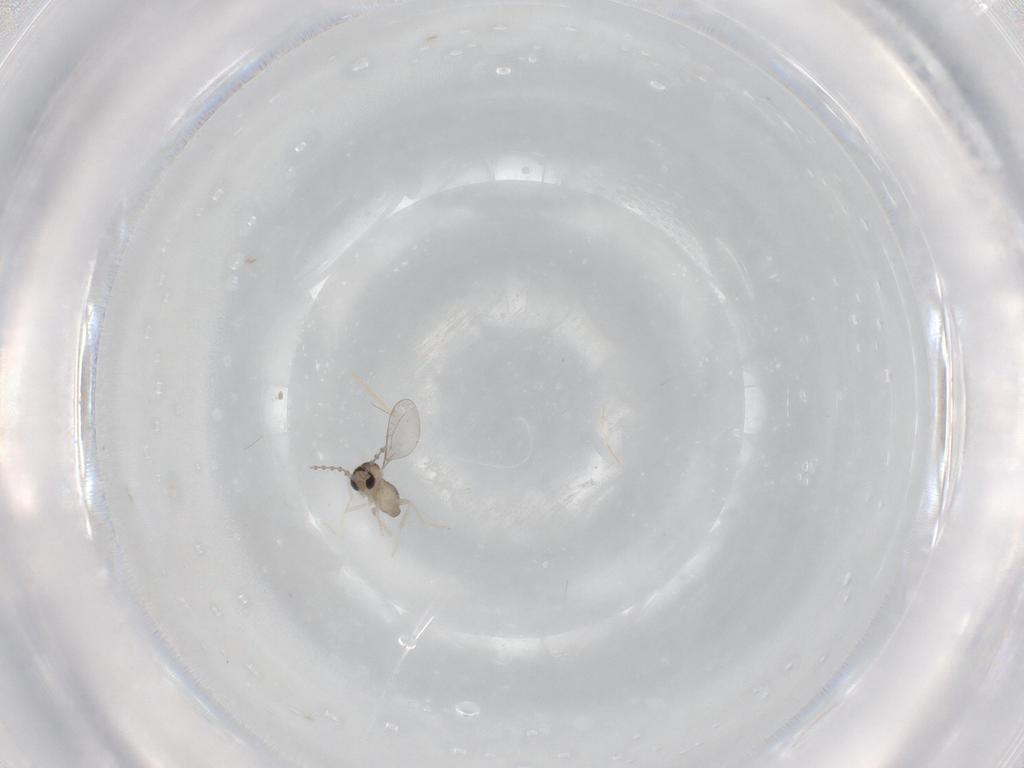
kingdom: Animalia
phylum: Arthropoda
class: Insecta
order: Diptera
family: Cecidomyiidae
